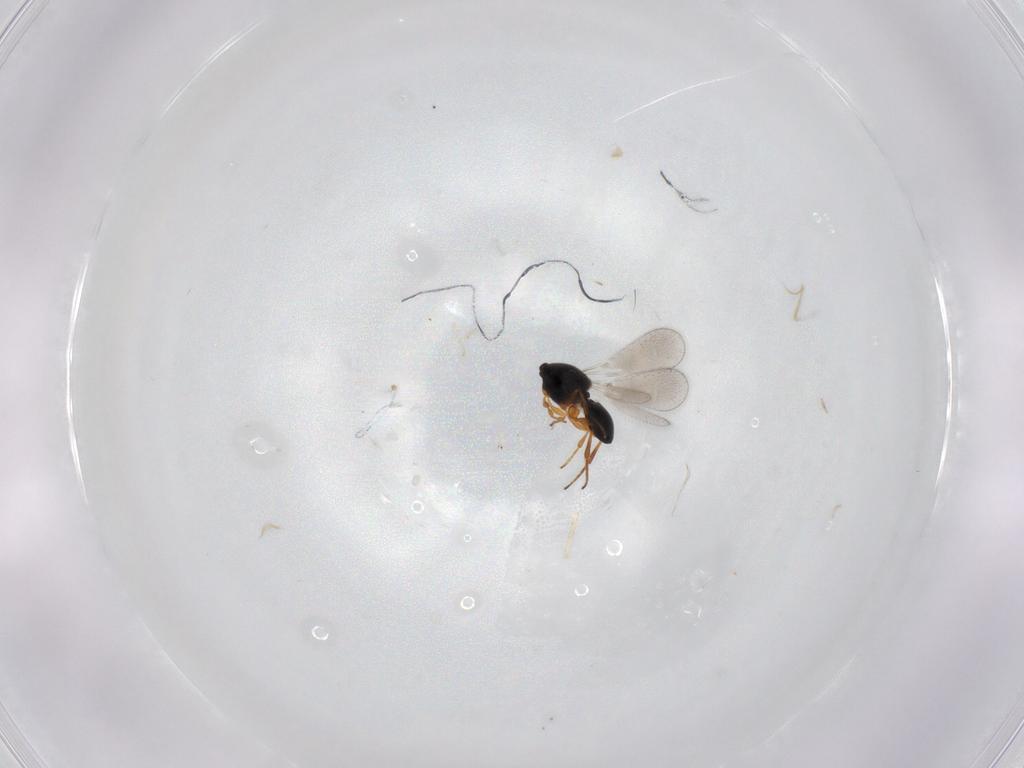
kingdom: Animalia
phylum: Arthropoda
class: Insecta
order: Hymenoptera
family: Platygastridae
